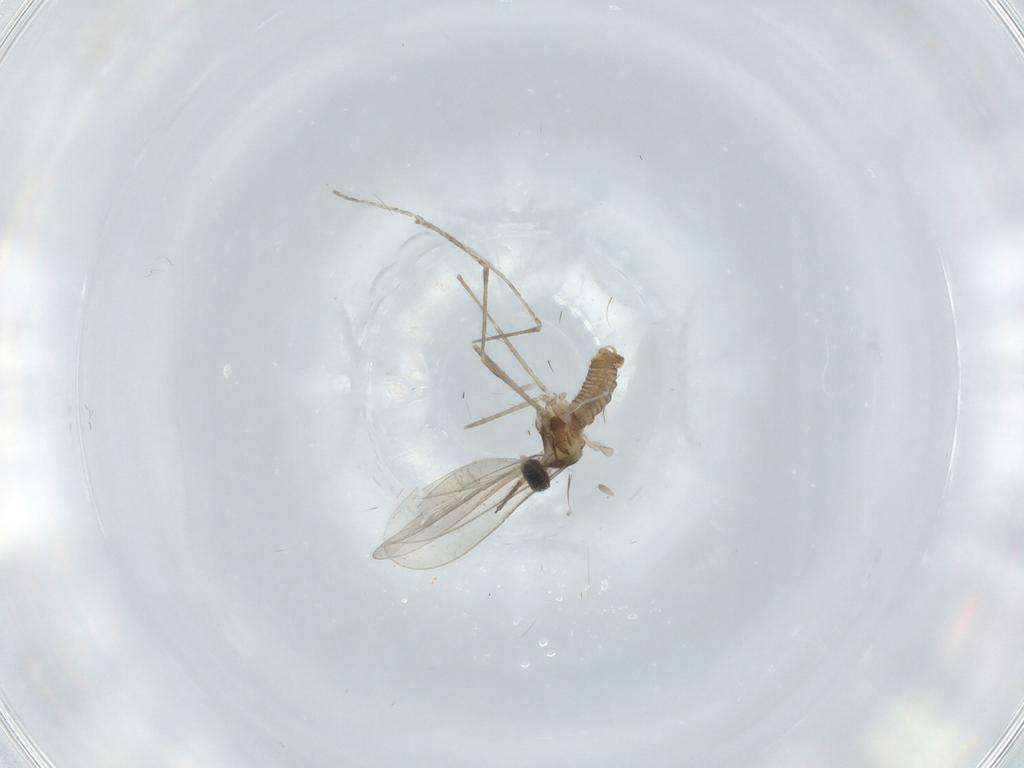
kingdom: Animalia
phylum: Arthropoda
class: Insecta
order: Diptera
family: Cecidomyiidae
